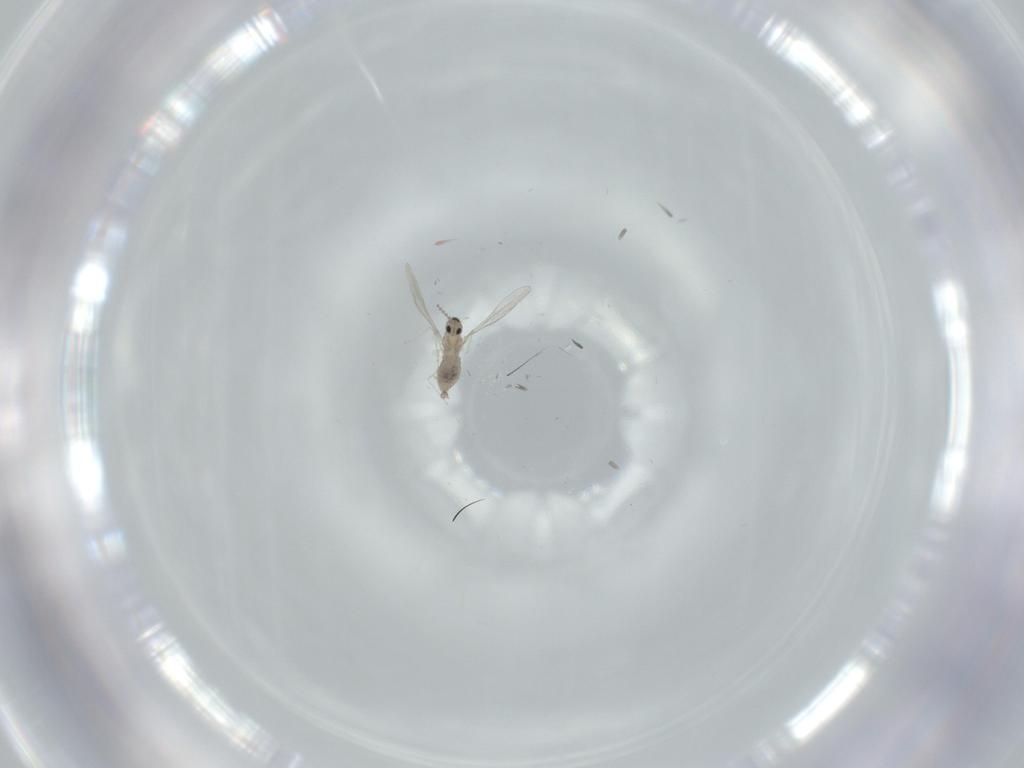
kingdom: Animalia
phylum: Arthropoda
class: Insecta
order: Diptera
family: Cecidomyiidae
